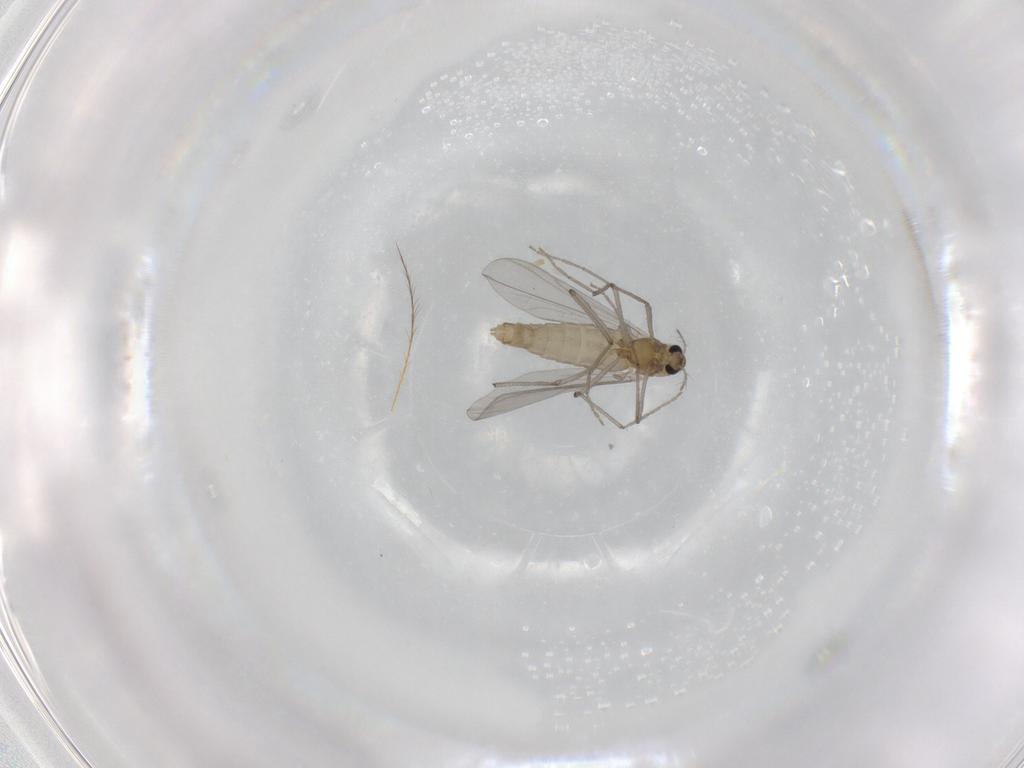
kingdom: Animalia
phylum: Arthropoda
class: Insecta
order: Diptera
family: Chironomidae
